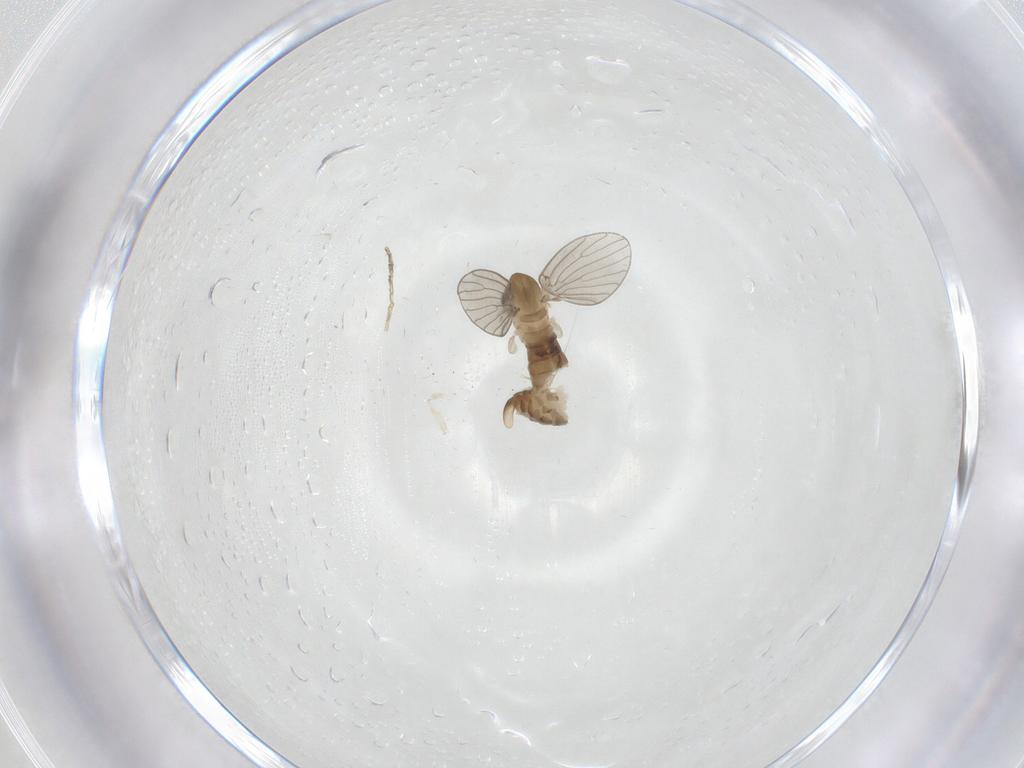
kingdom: Animalia
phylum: Arthropoda
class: Insecta
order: Diptera
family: Psychodidae
